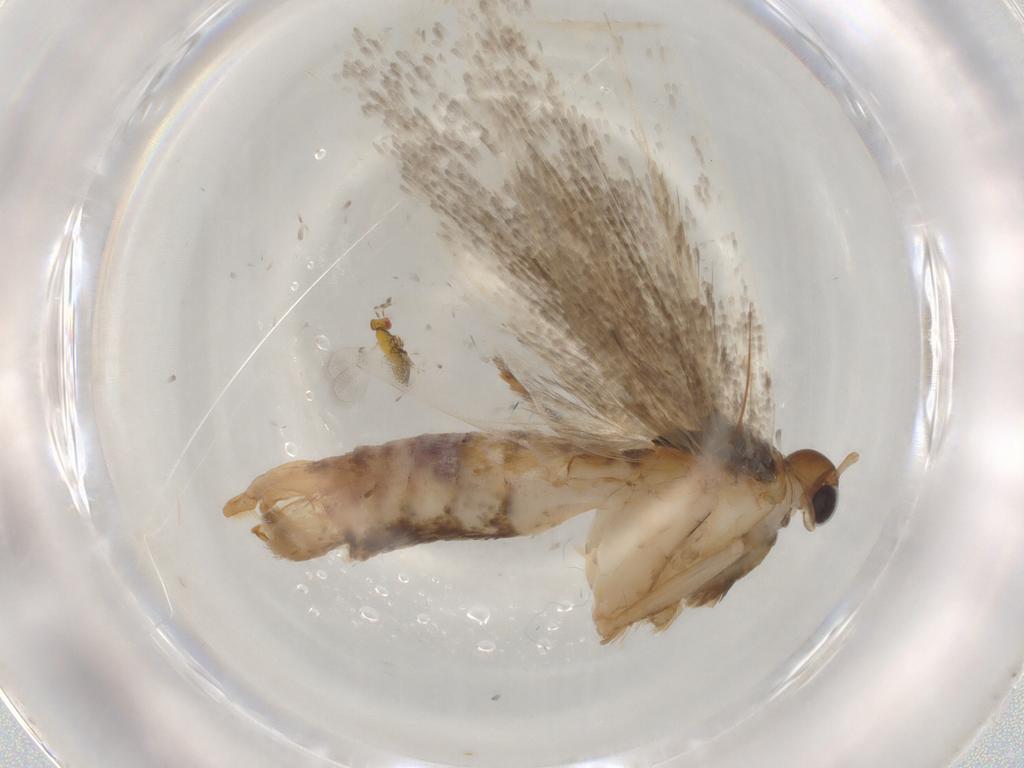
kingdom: Animalia
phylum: Arthropoda
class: Insecta
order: Lepidoptera
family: Gelechiidae
